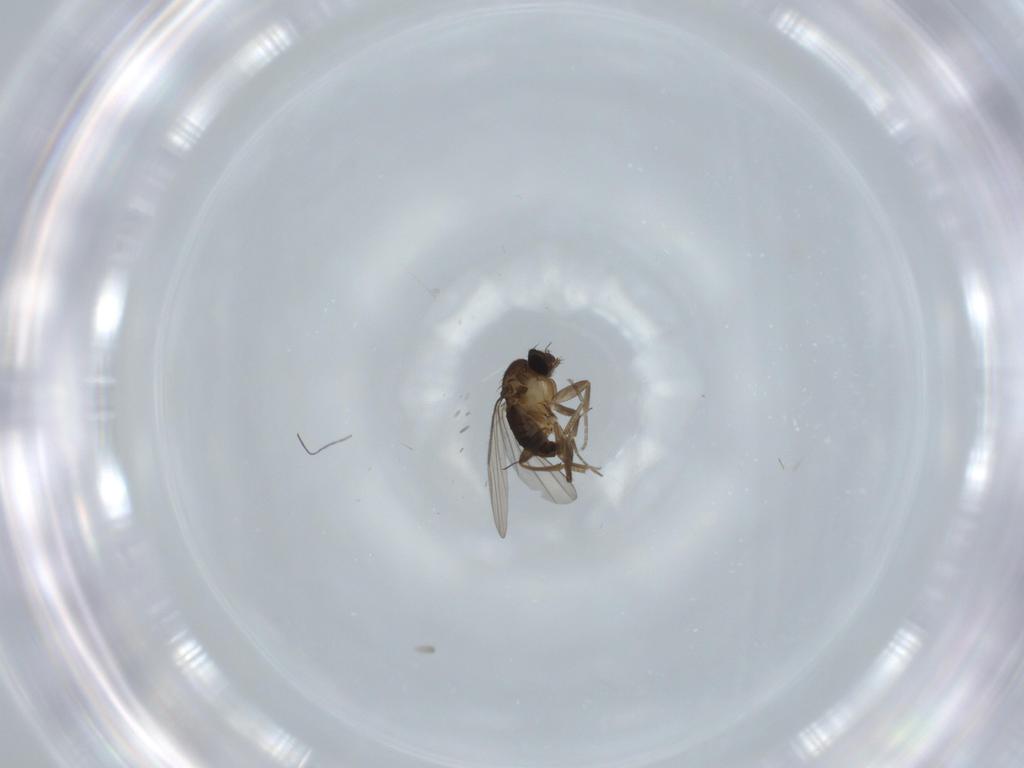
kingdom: Animalia
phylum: Arthropoda
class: Insecta
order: Diptera
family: Phoridae
